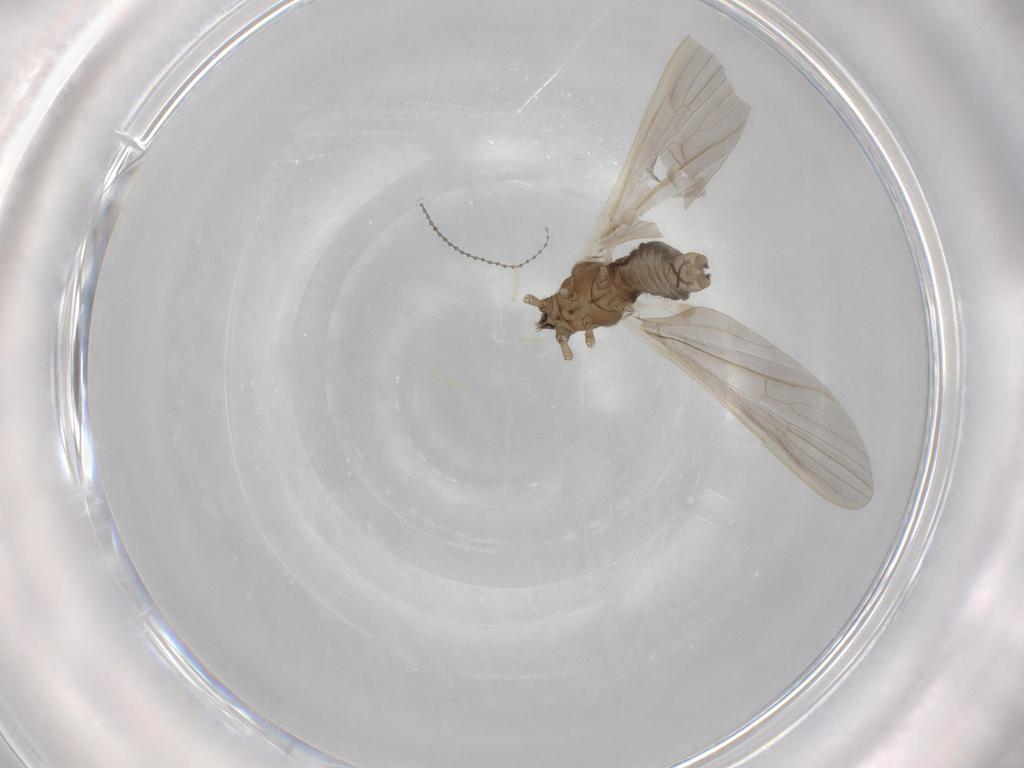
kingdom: Animalia
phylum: Arthropoda
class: Insecta
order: Diptera
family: Limoniidae
